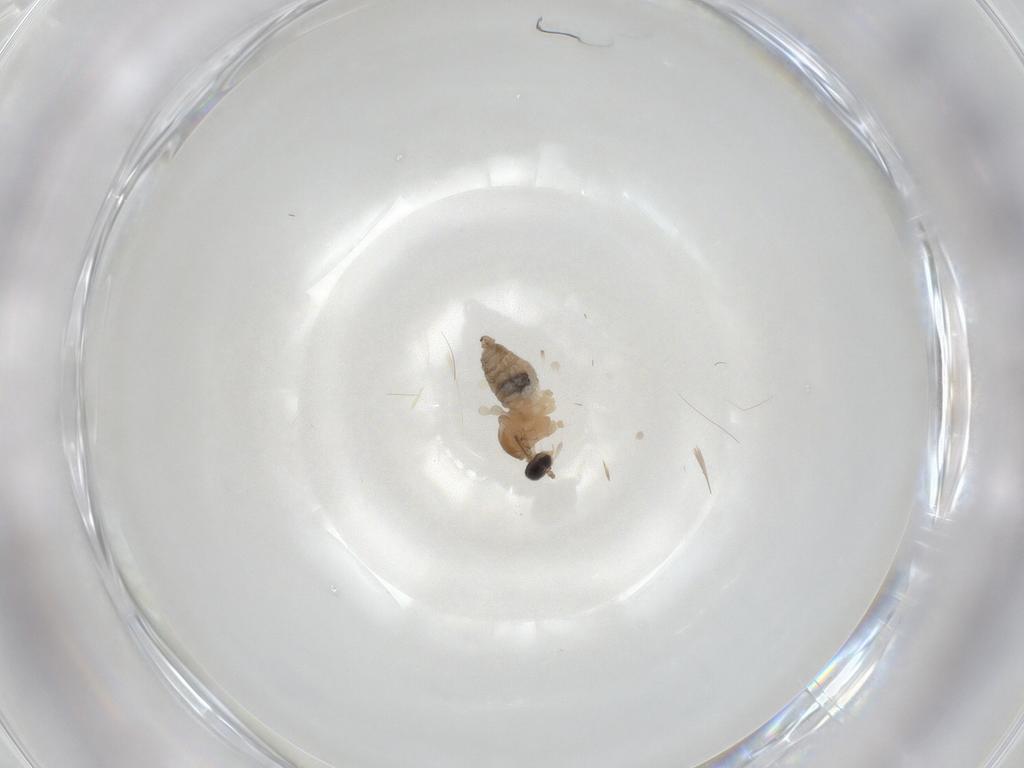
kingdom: Animalia
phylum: Arthropoda
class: Insecta
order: Diptera
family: Cecidomyiidae
